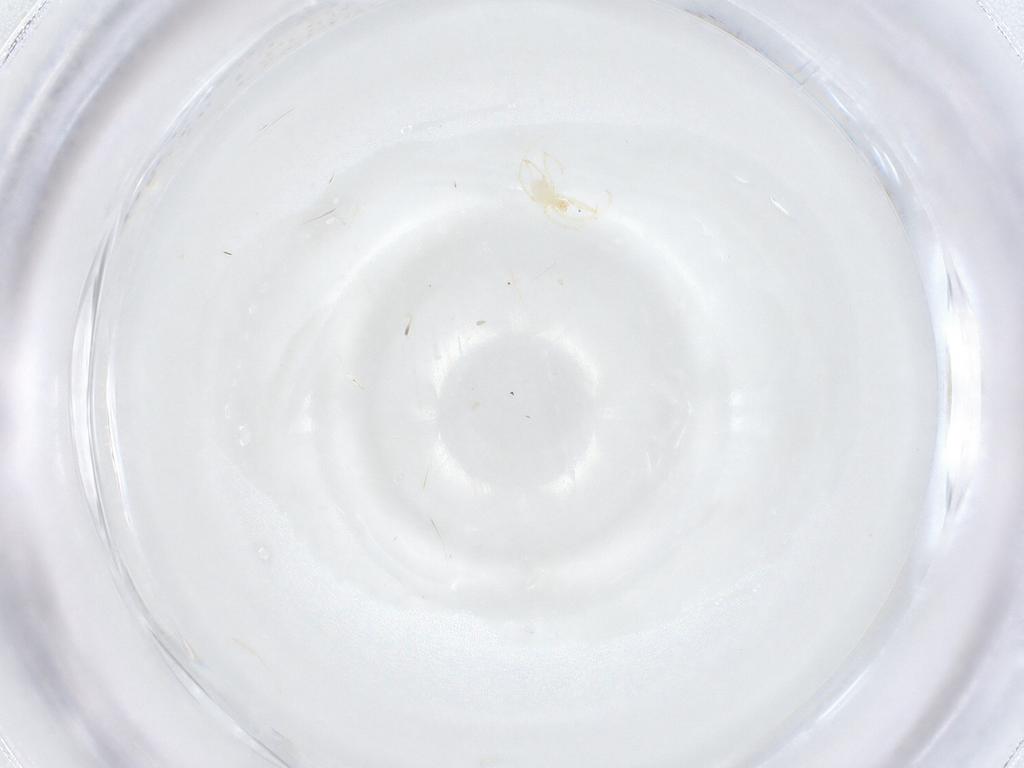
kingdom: Animalia
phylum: Arthropoda
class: Arachnida
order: Trombidiformes
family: Erythraeidae
